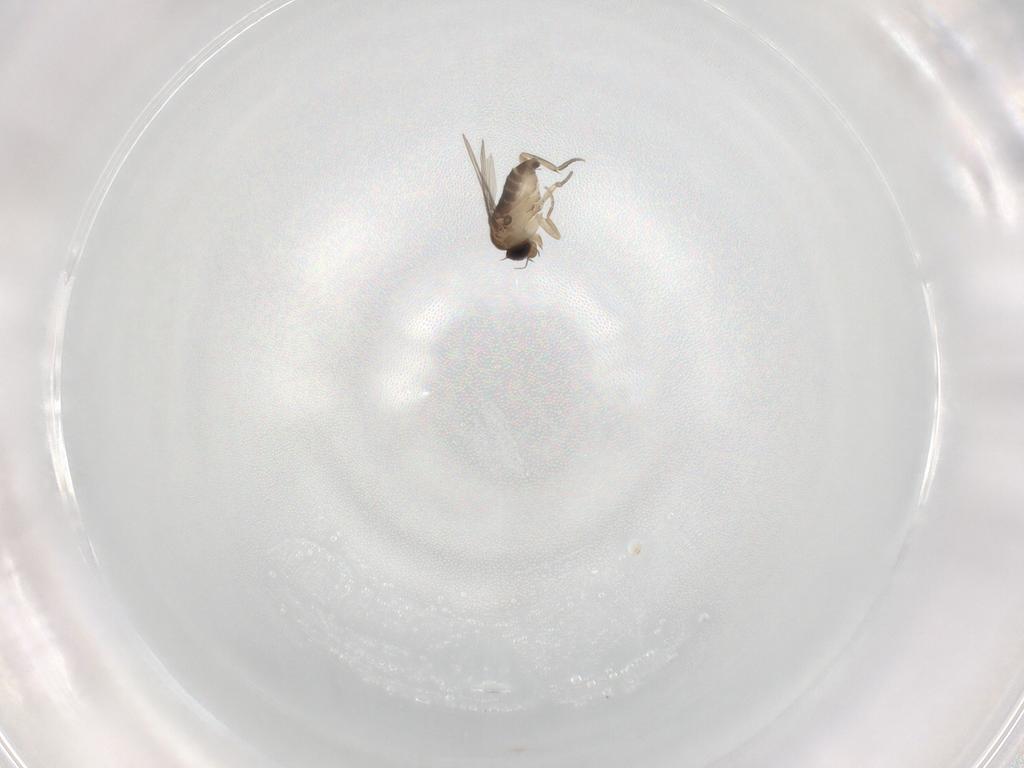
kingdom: Animalia
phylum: Arthropoda
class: Insecta
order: Diptera
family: Phoridae
